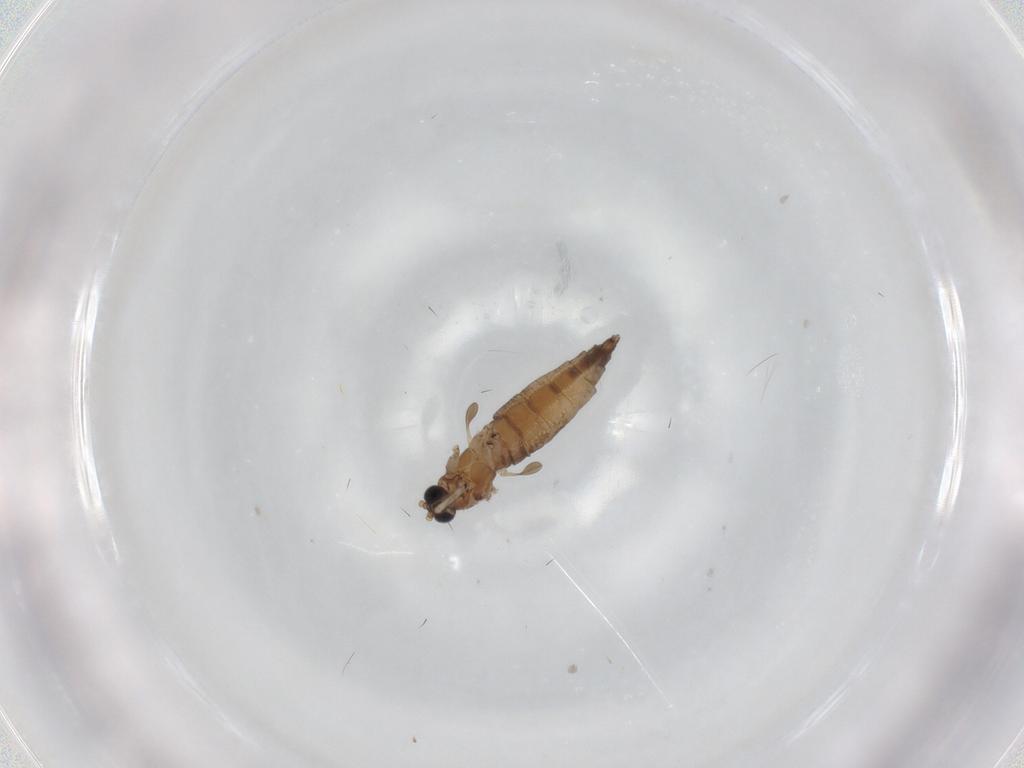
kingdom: Animalia
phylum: Arthropoda
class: Insecta
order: Diptera
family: Sciaridae
